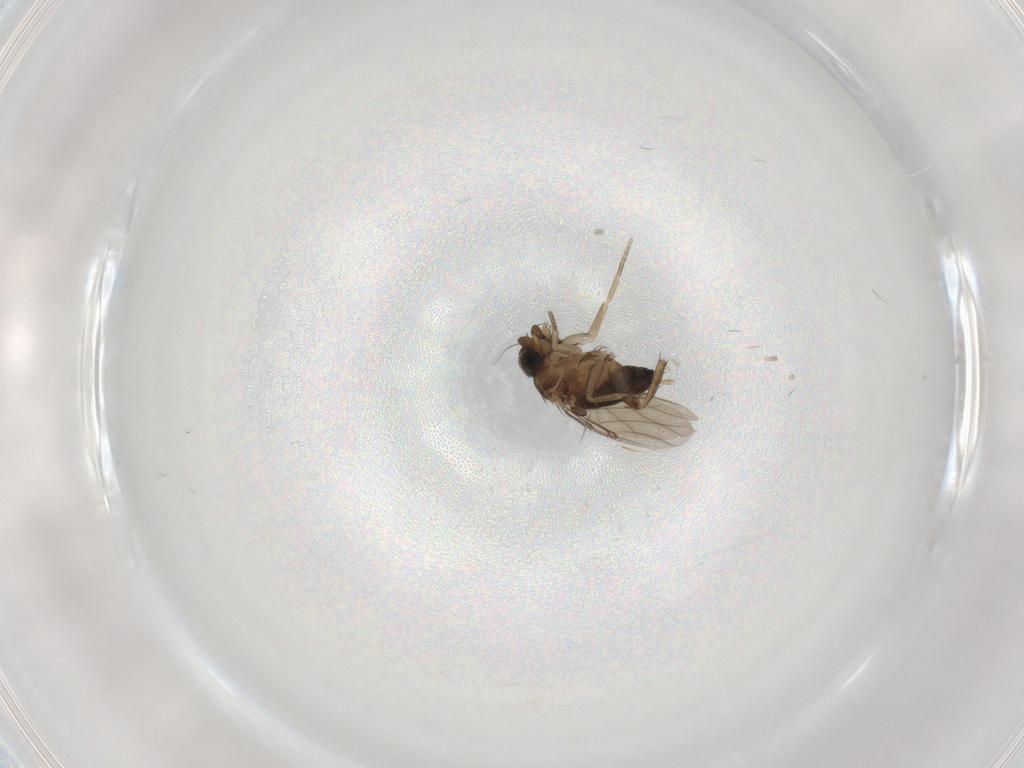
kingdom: Animalia
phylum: Arthropoda
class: Insecta
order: Diptera
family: Phoridae
